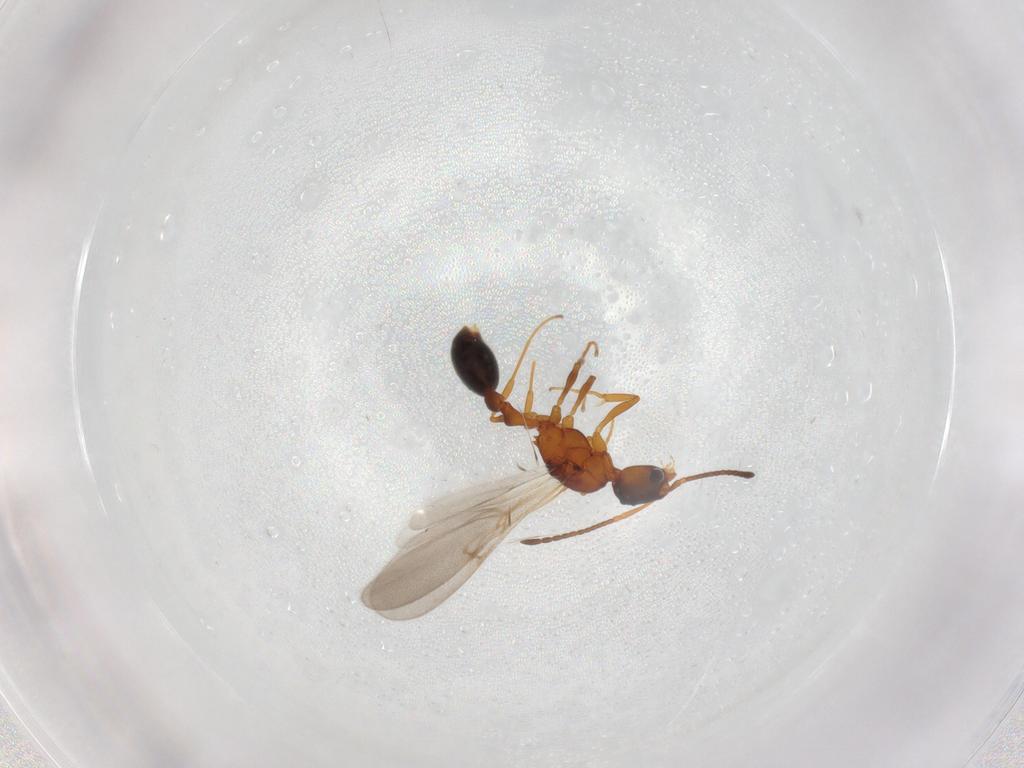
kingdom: Animalia
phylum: Arthropoda
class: Insecta
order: Hymenoptera
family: Formicidae
